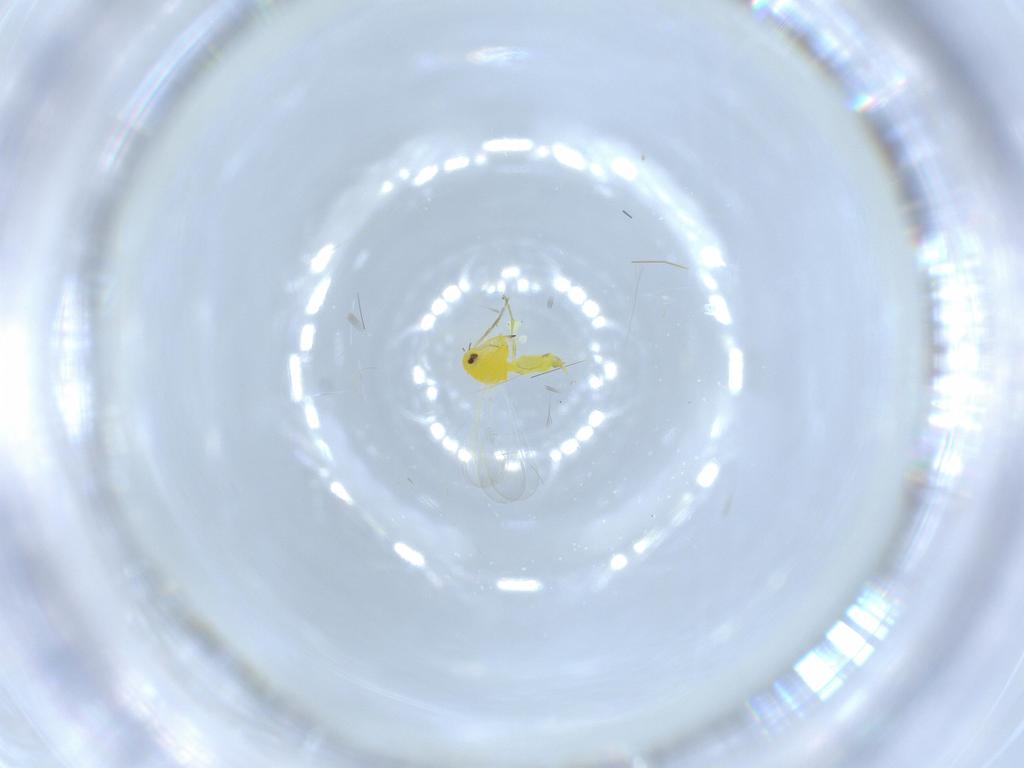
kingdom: Animalia
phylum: Arthropoda
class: Insecta
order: Hemiptera
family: Aleyrodidae
